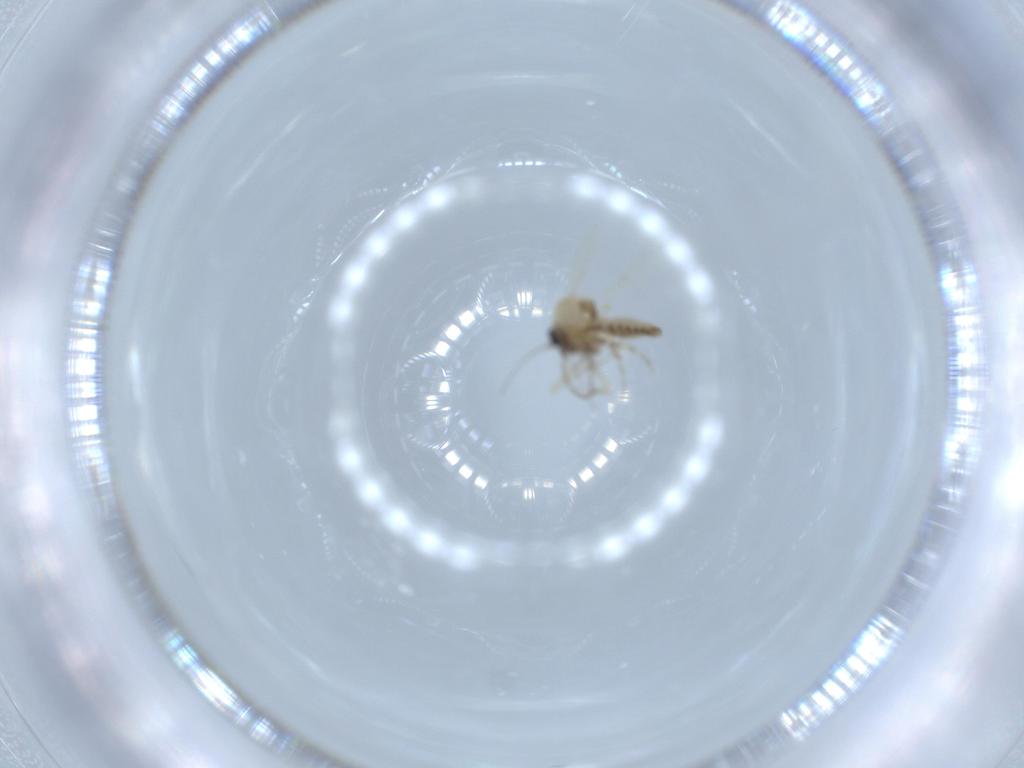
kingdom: Animalia
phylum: Arthropoda
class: Insecta
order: Diptera
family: Ceratopogonidae
